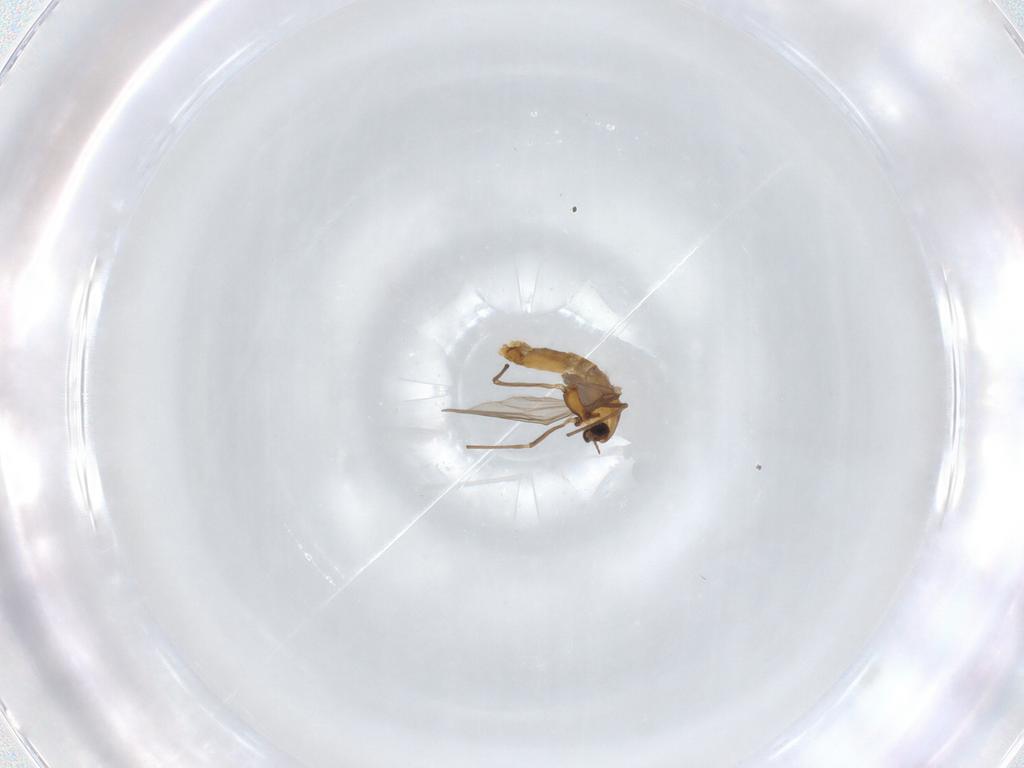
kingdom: Animalia
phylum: Arthropoda
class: Insecta
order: Diptera
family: Chironomidae
